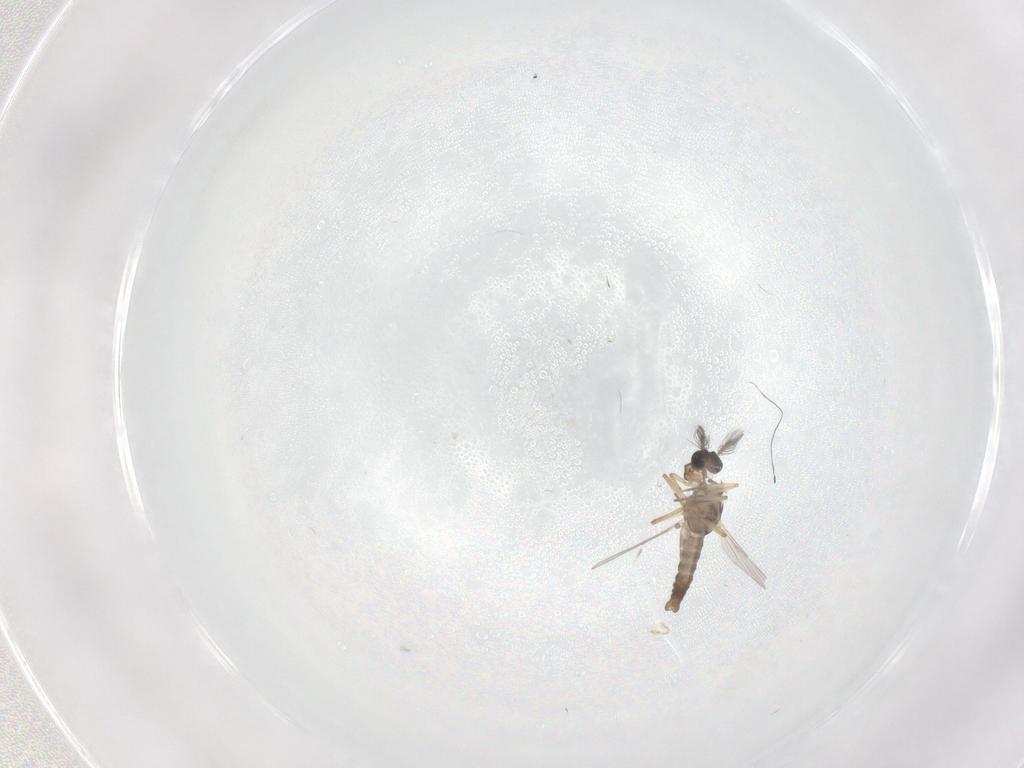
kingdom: Animalia
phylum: Arthropoda
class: Insecta
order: Diptera
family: Ceratopogonidae
